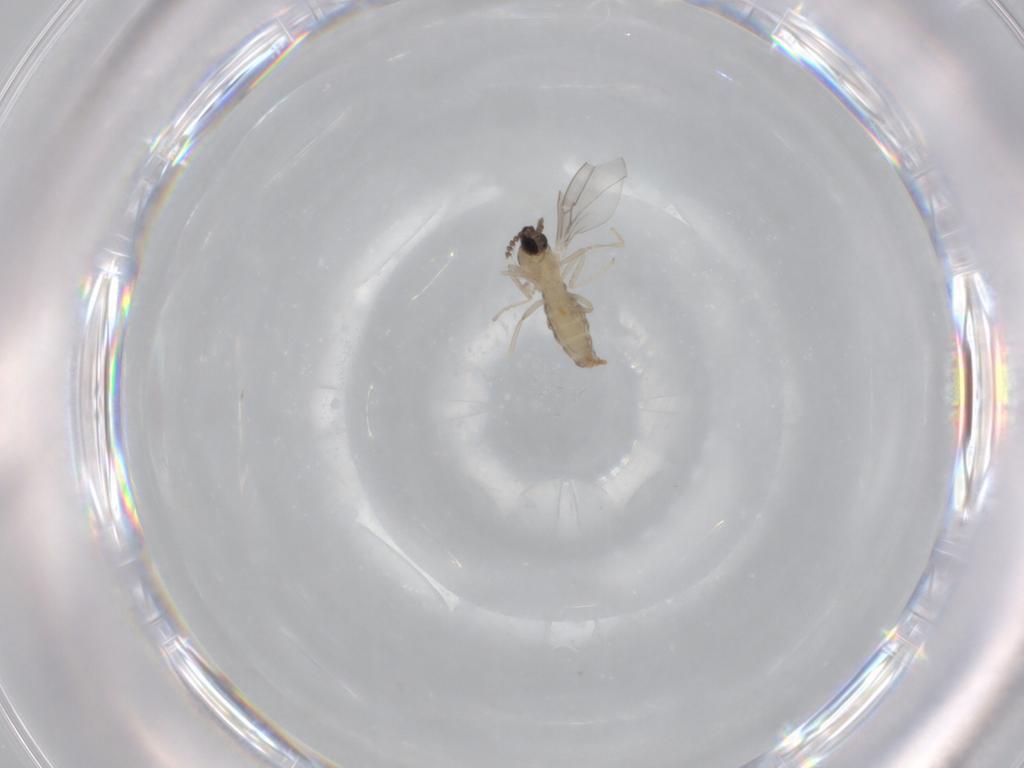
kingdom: Animalia
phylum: Arthropoda
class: Insecta
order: Diptera
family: Cecidomyiidae
